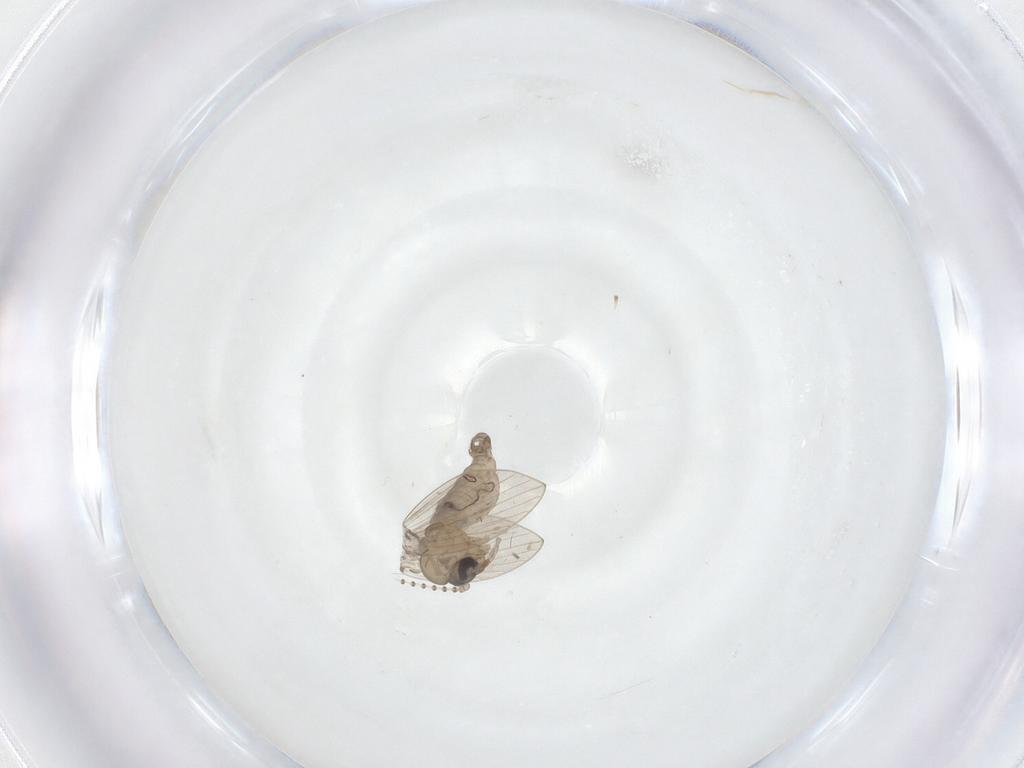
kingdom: Animalia
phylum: Arthropoda
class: Insecta
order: Diptera
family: Psychodidae
